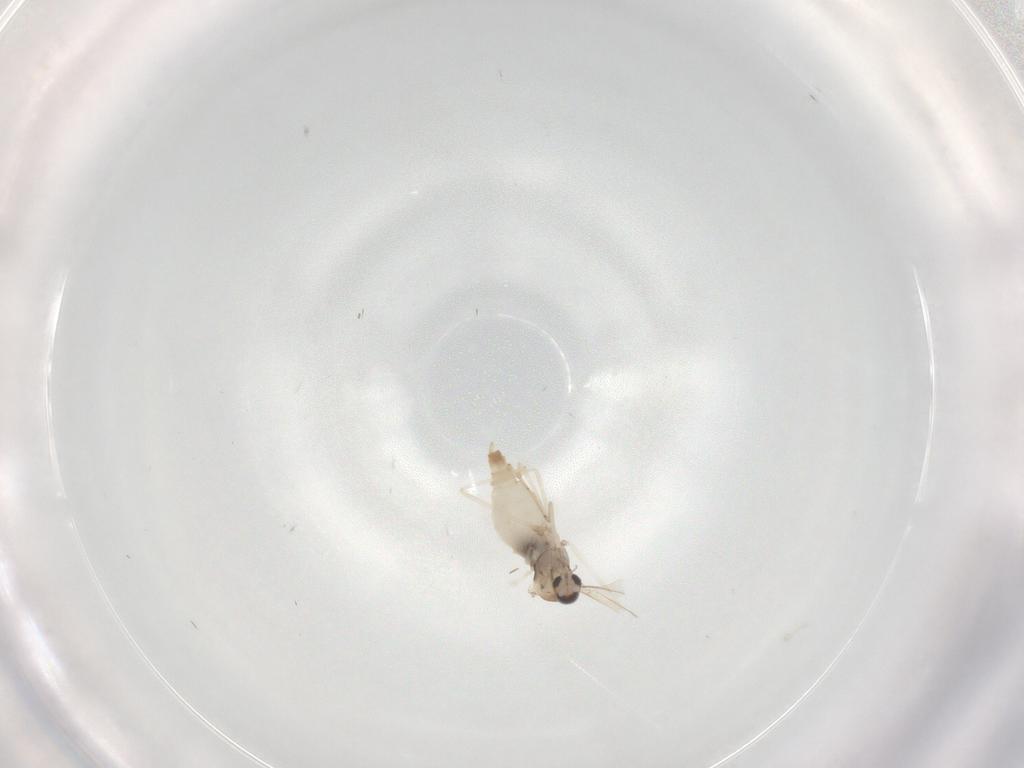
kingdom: Animalia
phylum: Arthropoda
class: Insecta
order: Diptera
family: Cecidomyiidae
